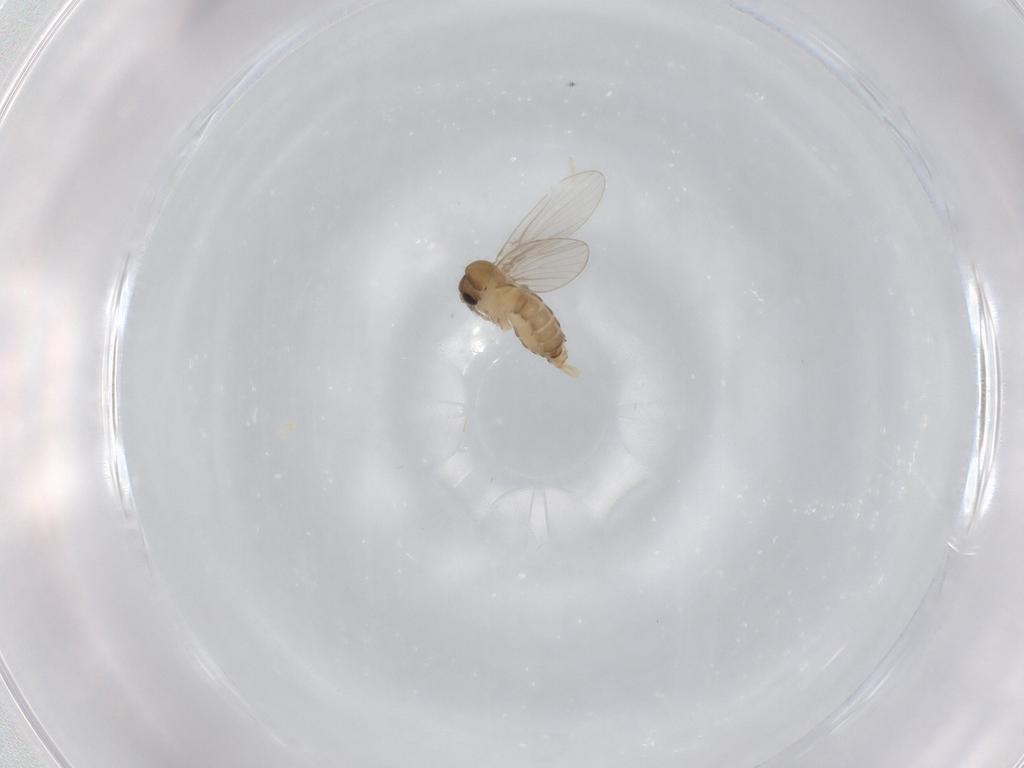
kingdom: Animalia
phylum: Arthropoda
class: Insecta
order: Diptera
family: Psychodidae
